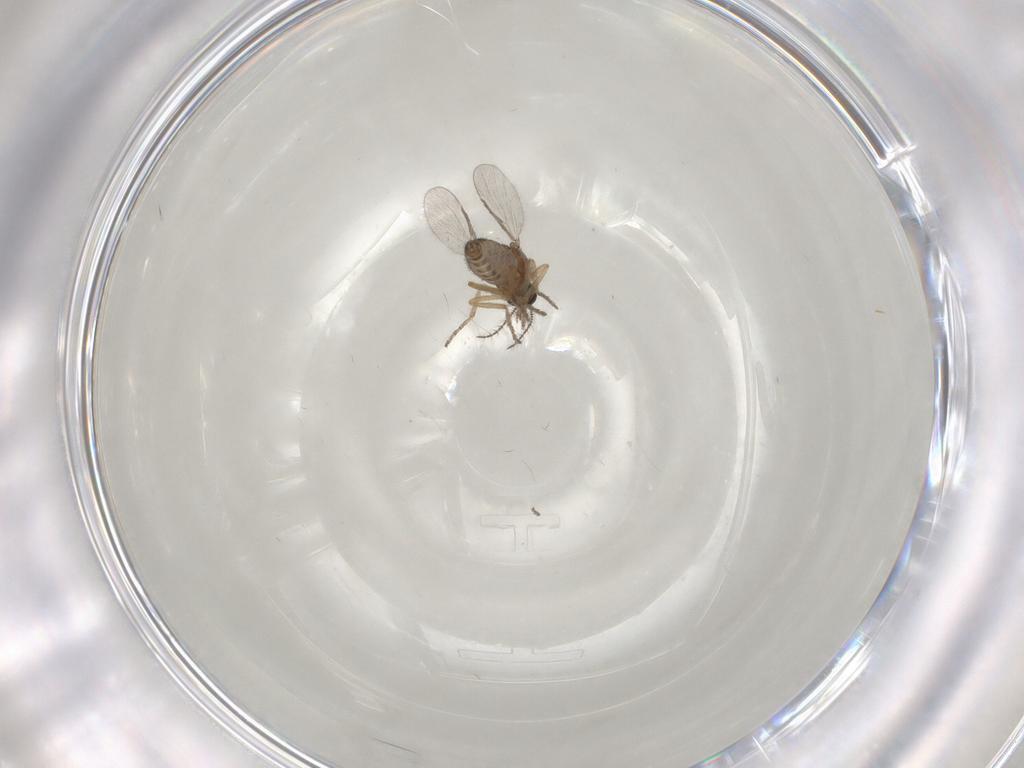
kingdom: Animalia
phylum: Arthropoda
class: Insecta
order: Diptera
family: Ceratopogonidae
